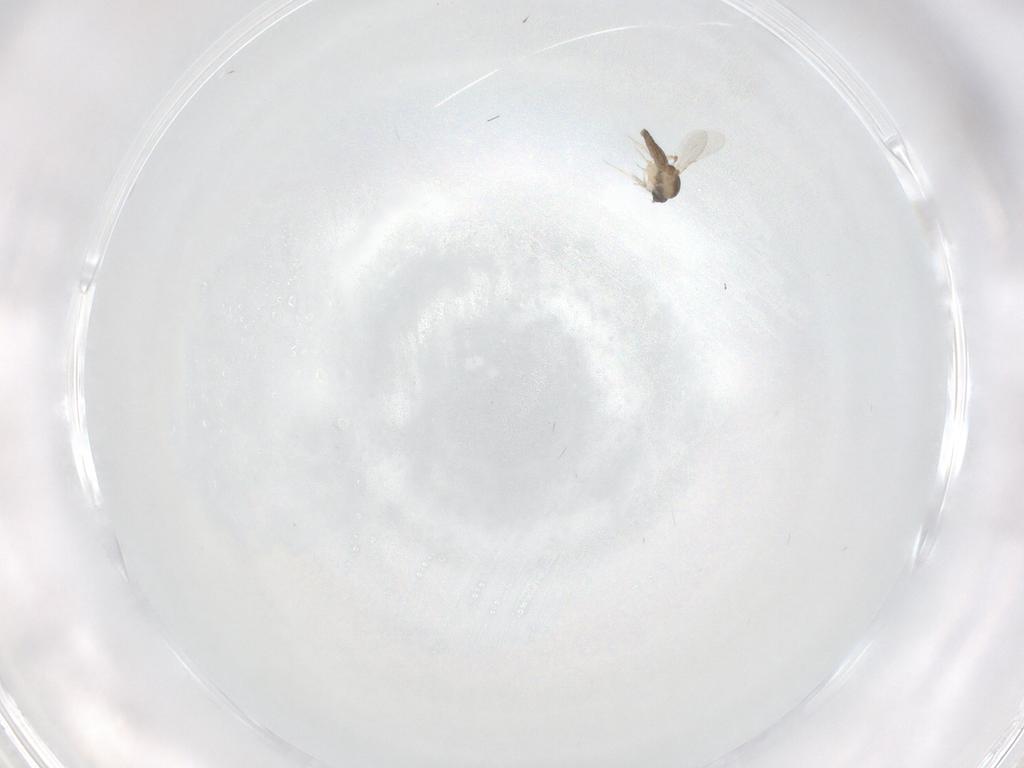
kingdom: Animalia
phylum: Arthropoda
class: Insecta
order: Diptera
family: Ceratopogonidae
